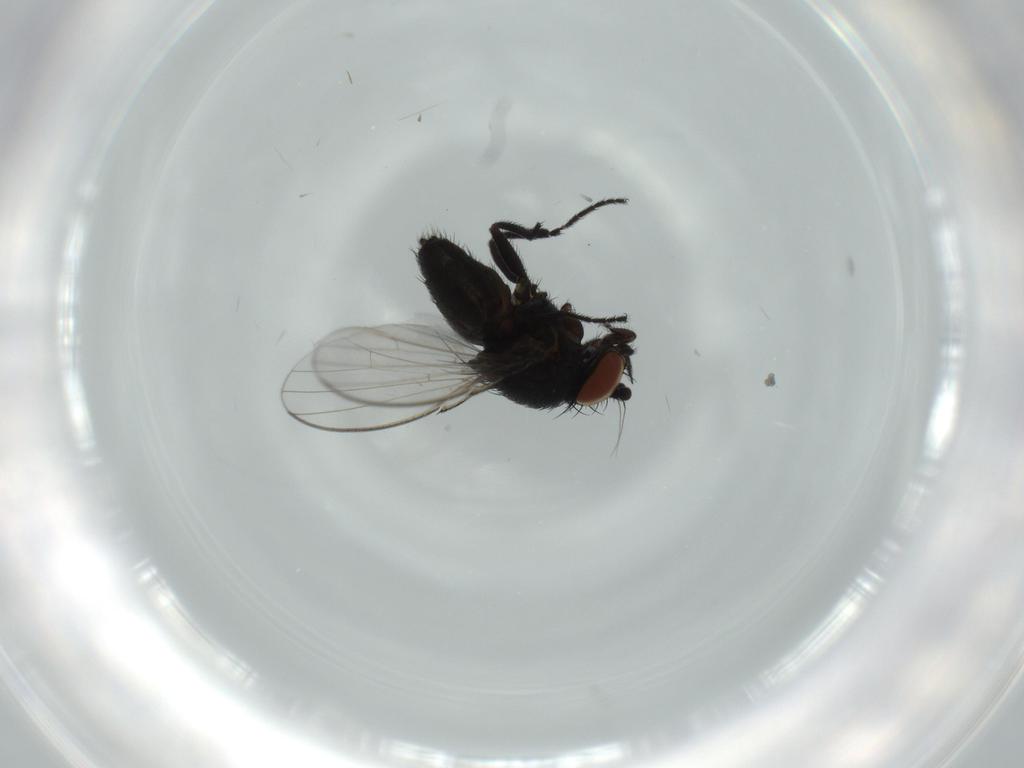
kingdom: Animalia
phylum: Arthropoda
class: Insecta
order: Diptera
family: Milichiidae
